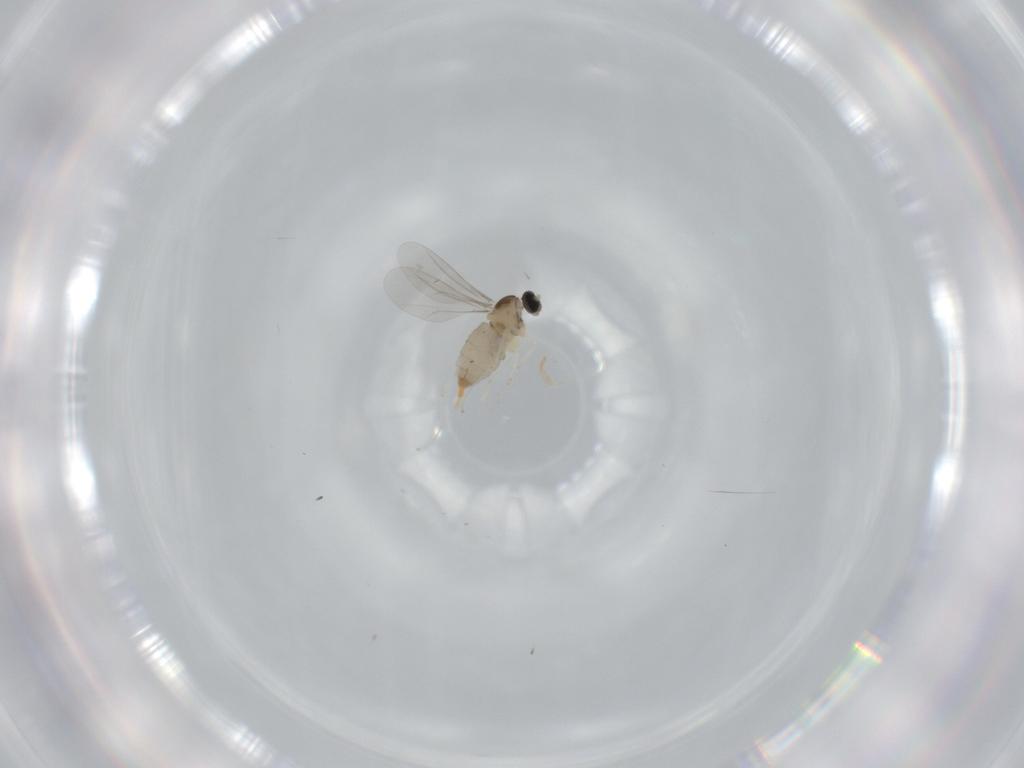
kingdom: Animalia
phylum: Arthropoda
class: Insecta
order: Diptera
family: Cecidomyiidae
